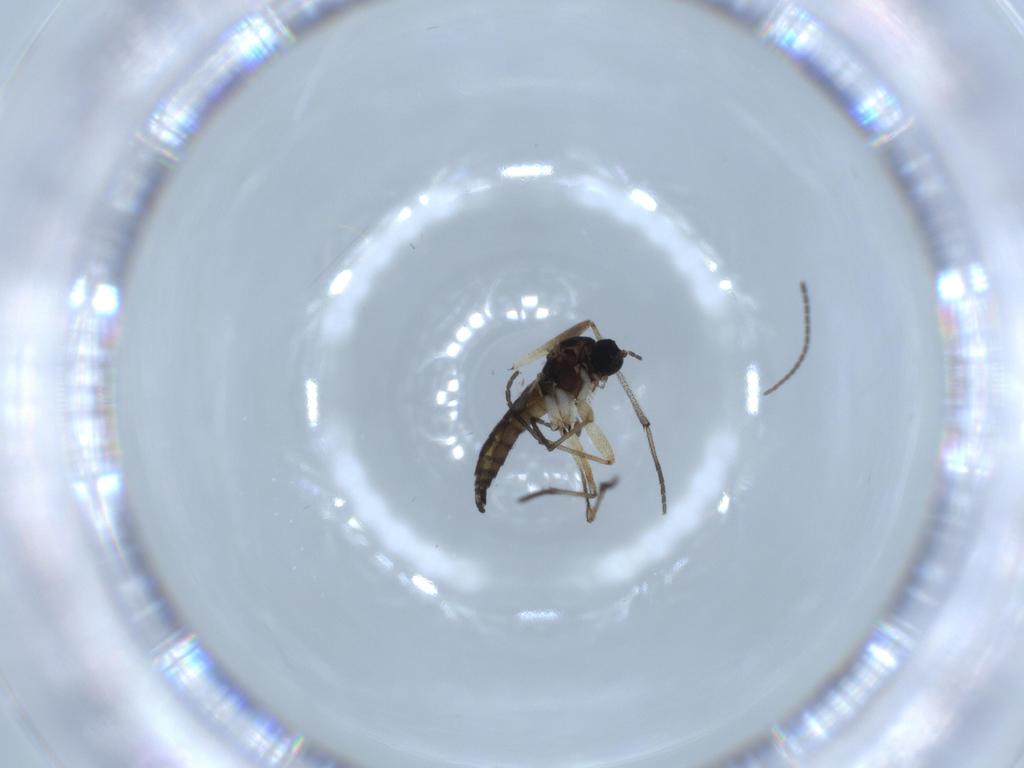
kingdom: Animalia
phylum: Arthropoda
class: Insecta
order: Diptera
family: Sciaridae
